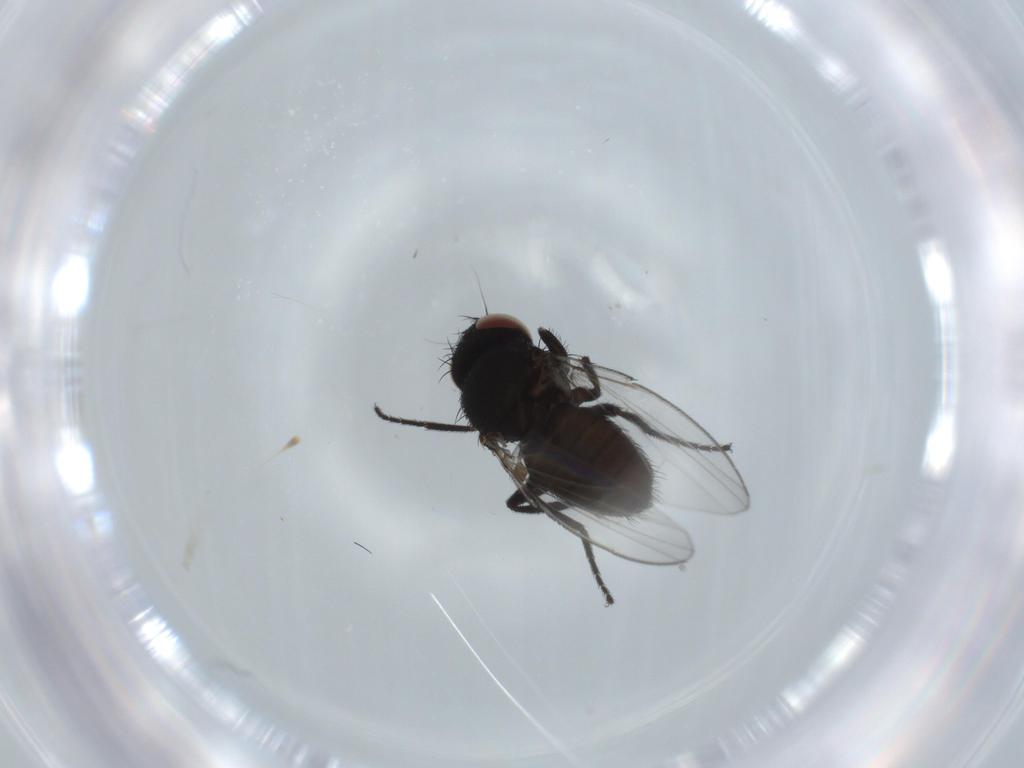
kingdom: Animalia
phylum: Arthropoda
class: Insecta
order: Diptera
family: Milichiidae
